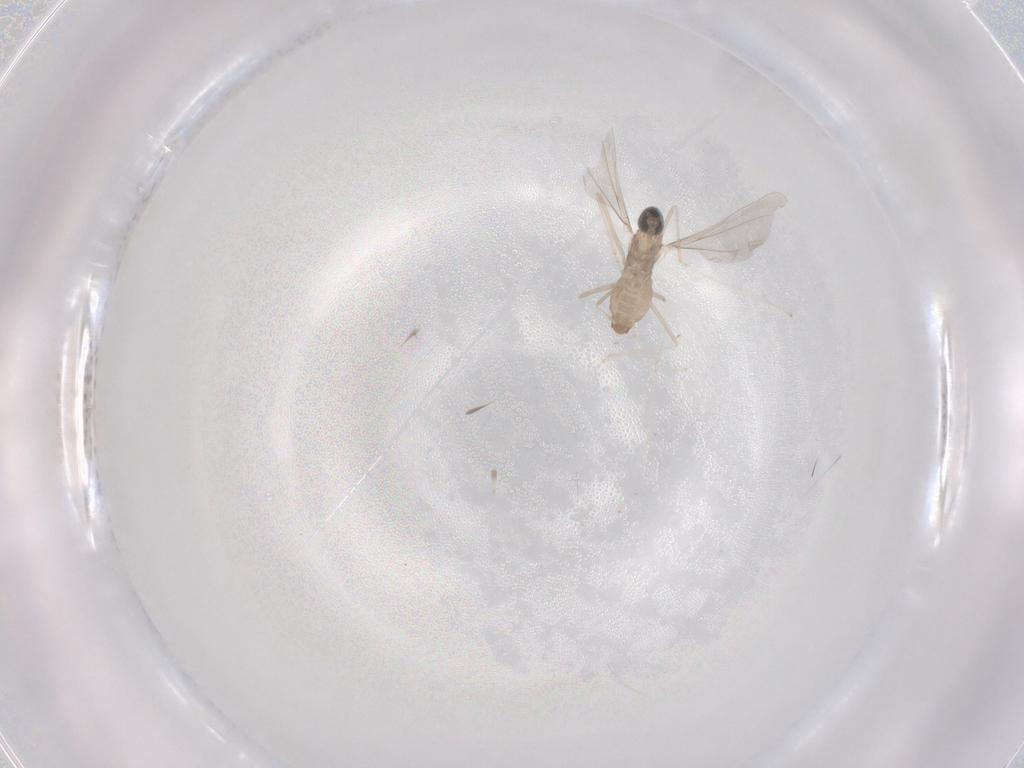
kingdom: Animalia
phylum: Arthropoda
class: Insecta
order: Diptera
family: Cecidomyiidae
